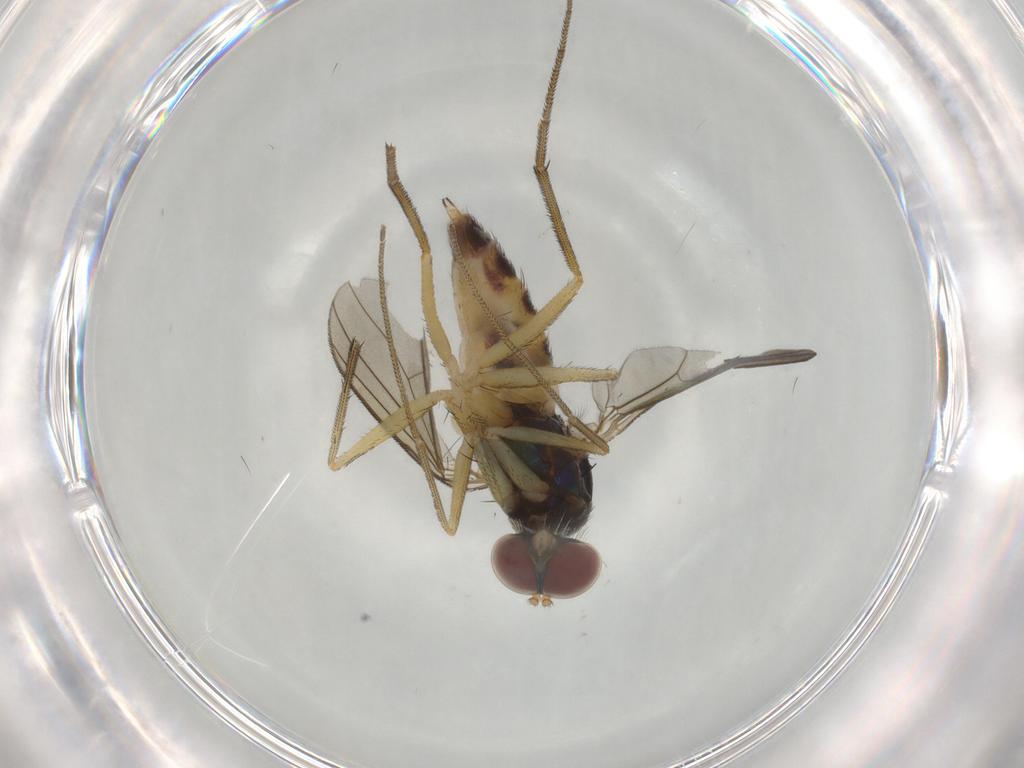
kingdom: Animalia
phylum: Arthropoda
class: Insecta
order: Diptera
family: Dolichopodidae
